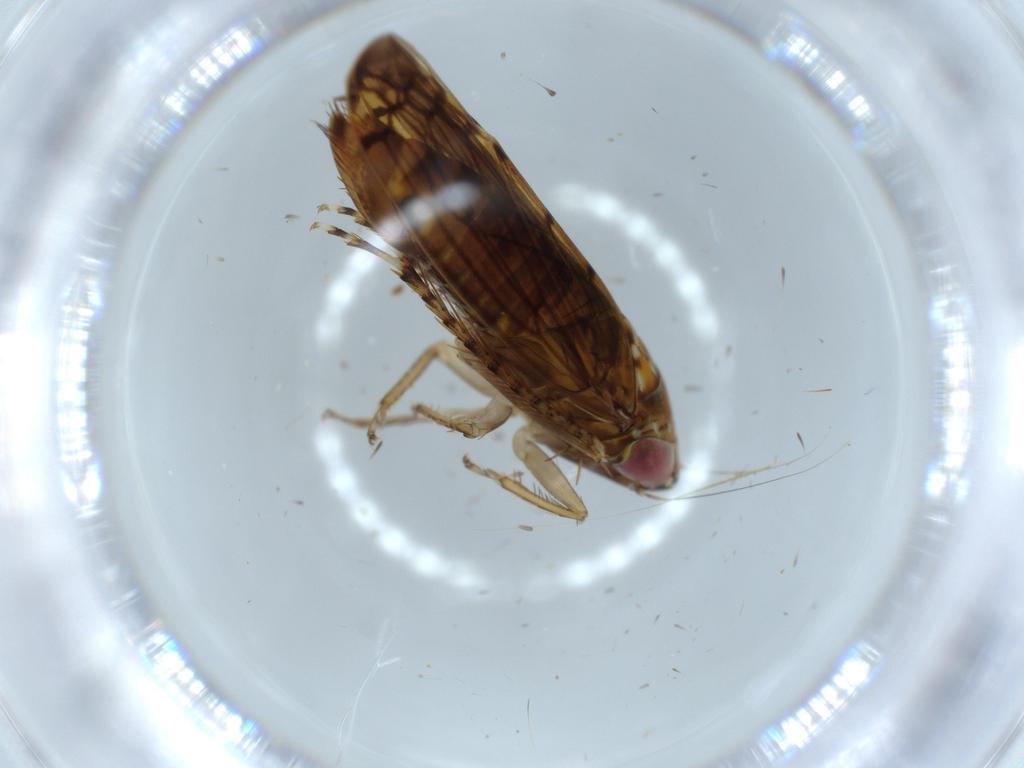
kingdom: Animalia
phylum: Arthropoda
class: Insecta
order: Hemiptera
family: Cicadellidae
